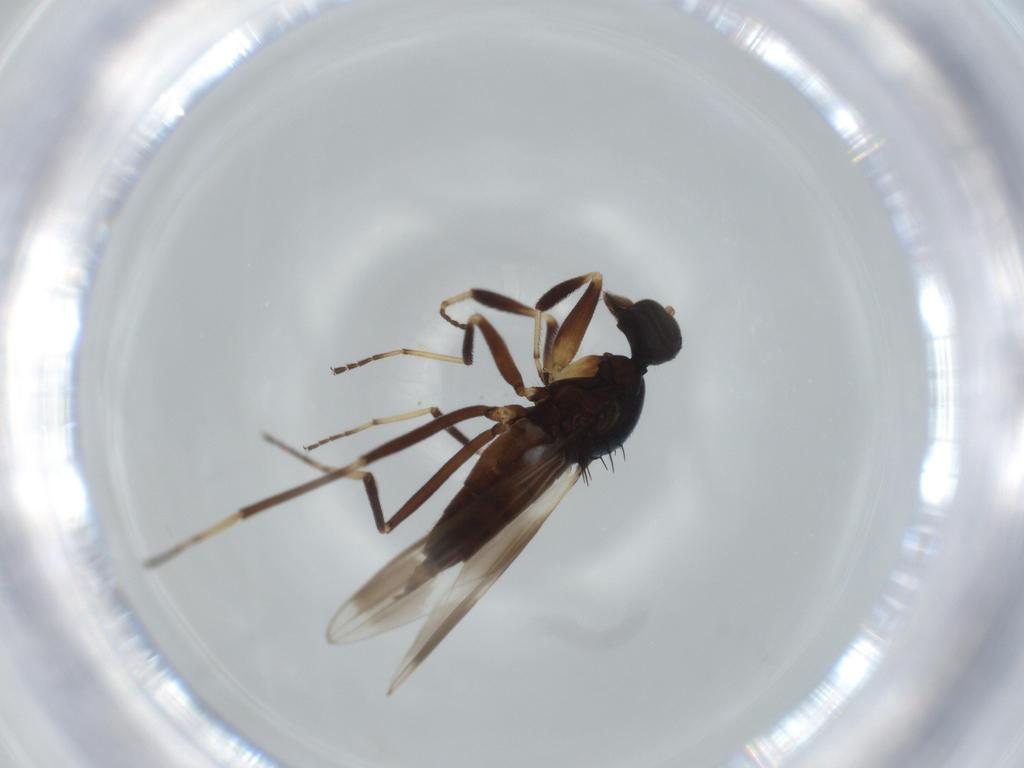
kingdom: Animalia
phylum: Arthropoda
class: Insecta
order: Diptera
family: Hybotidae
